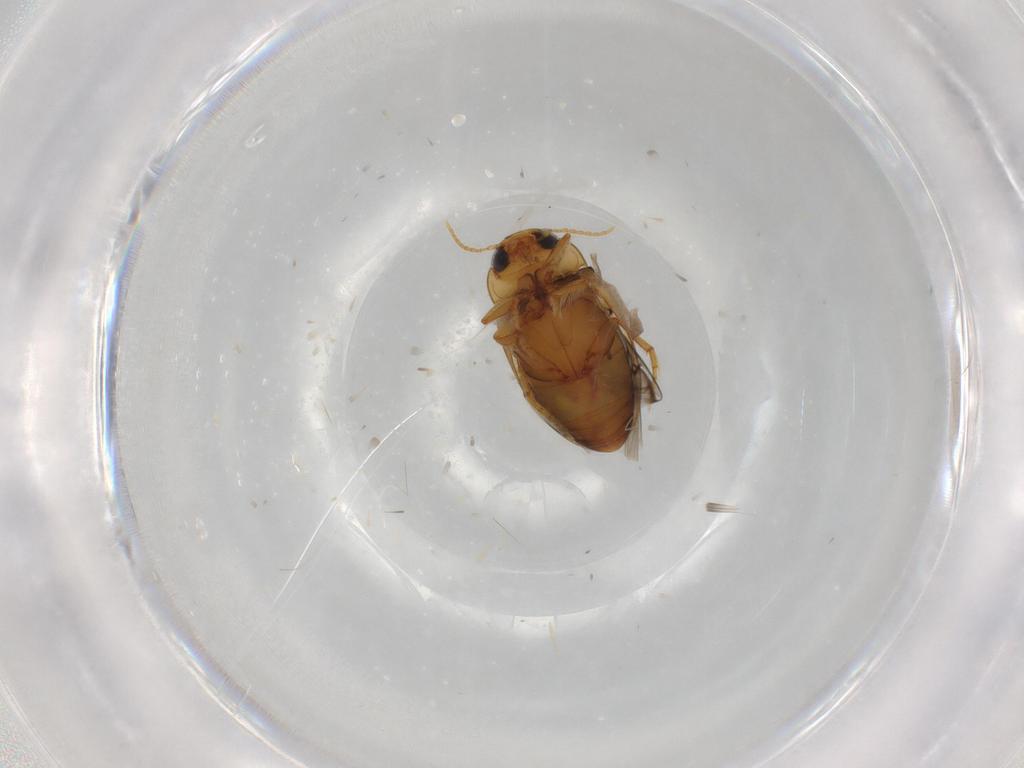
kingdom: Animalia
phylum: Arthropoda
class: Insecta
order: Coleoptera
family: Dytiscidae
